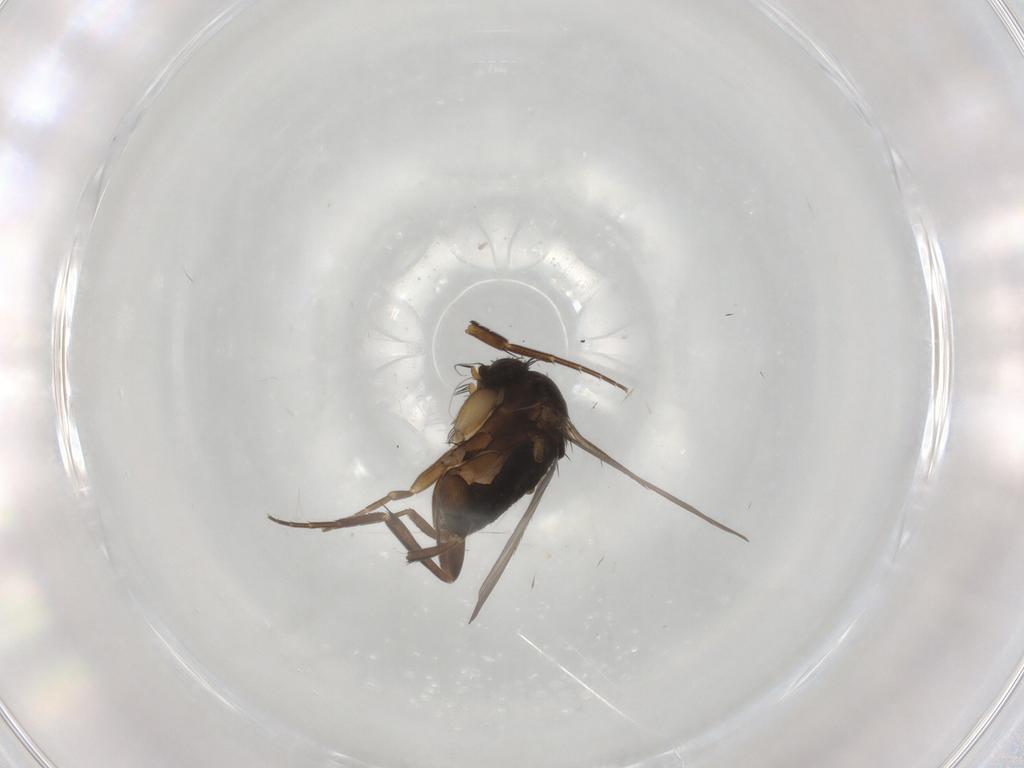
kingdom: Animalia
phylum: Arthropoda
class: Insecta
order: Diptera
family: Phoridae
